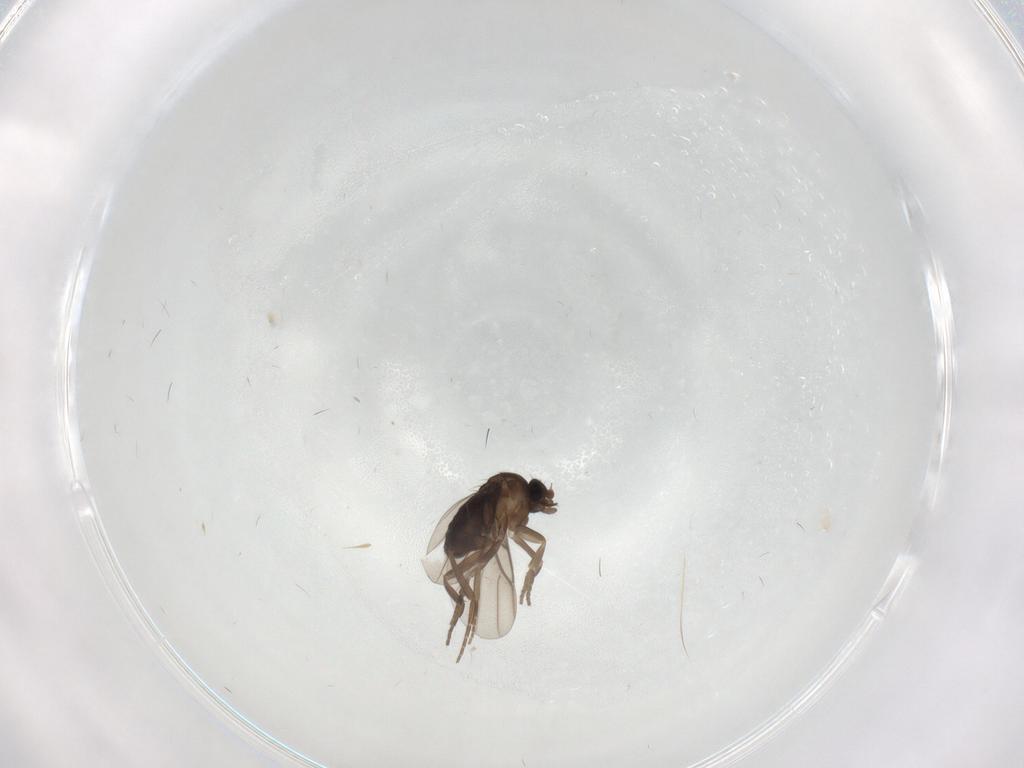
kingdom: Animalia
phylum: Arthropoda
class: Insecta
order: Diptera
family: Phoridae
